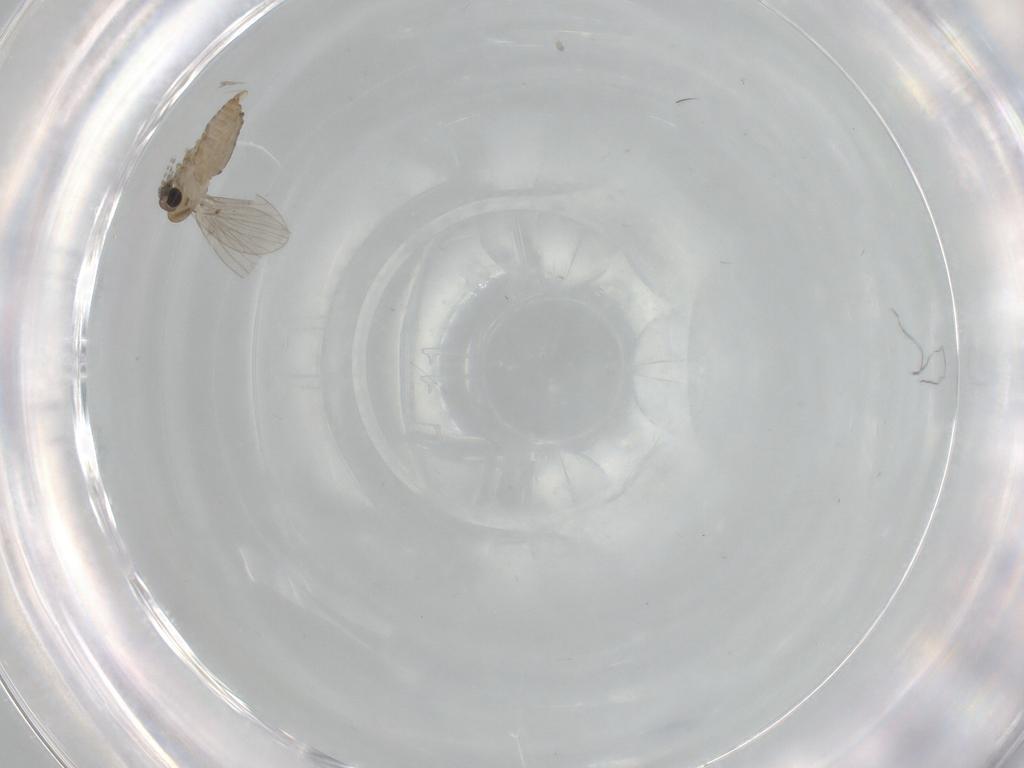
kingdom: Animalia
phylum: Arthropoda
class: Insecta
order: Diptera
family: Psychodidae
